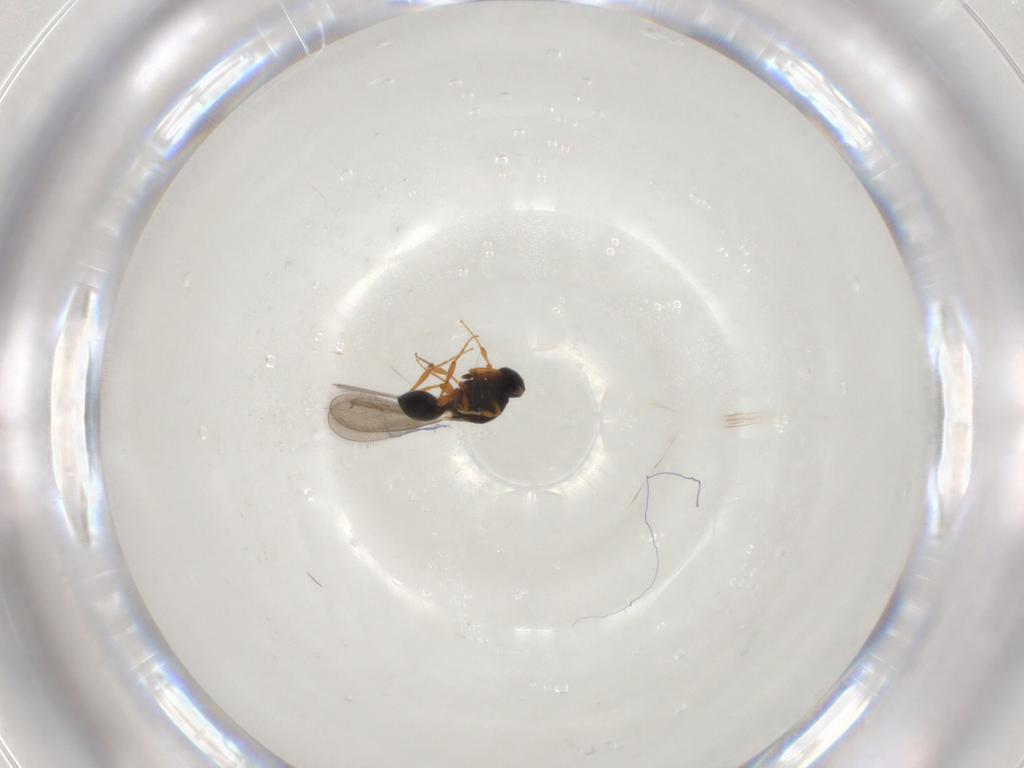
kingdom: Animalia
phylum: Arthropoda
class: Insecta
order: Hymenoptera
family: Platygastridae
